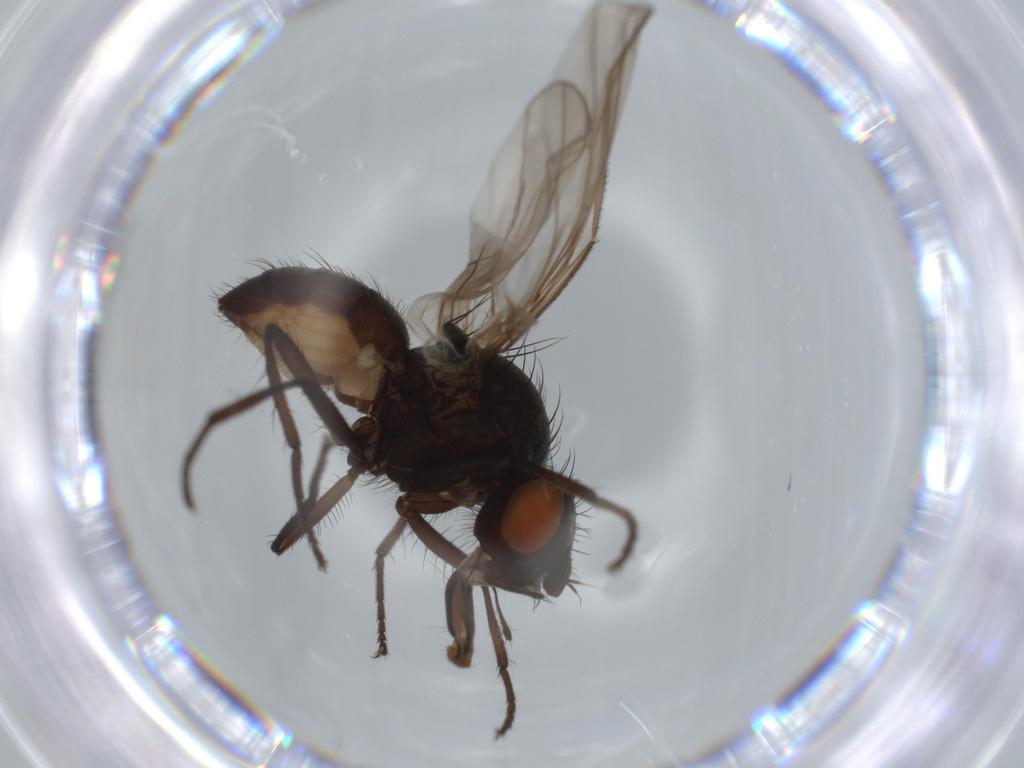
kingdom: Animalia
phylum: Arthropoda
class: Insecta
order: Diptera
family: Anthomyiidae
